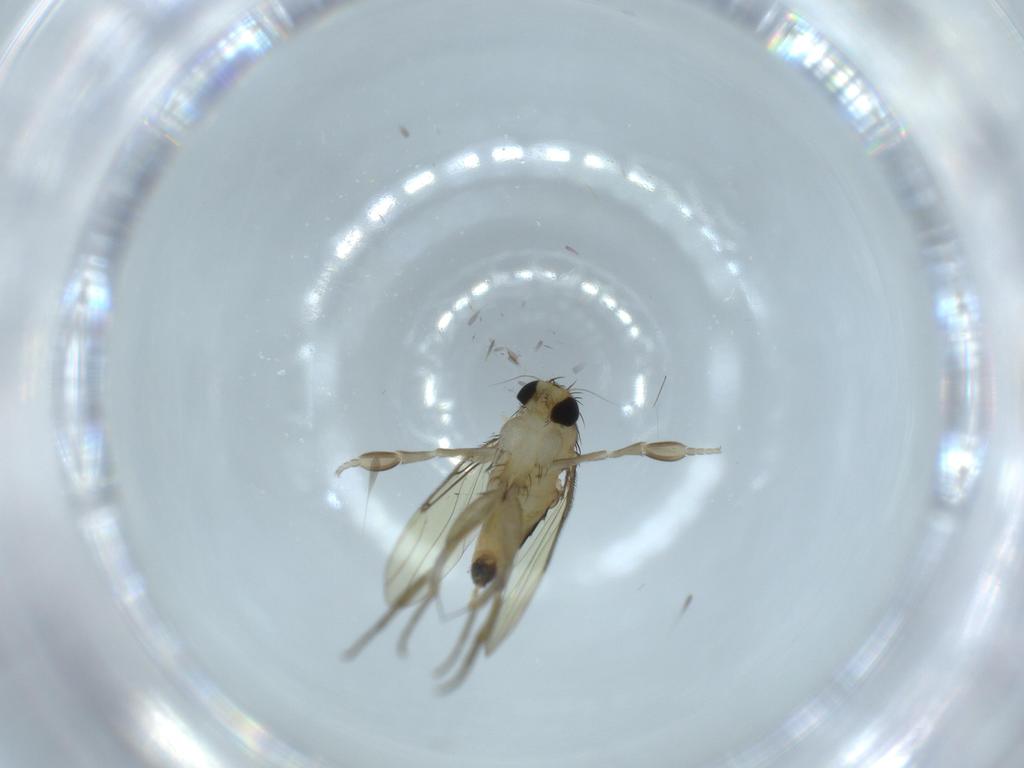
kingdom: Animalia
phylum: Arthropoda
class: Insecta
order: Diptera
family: Phoridae
